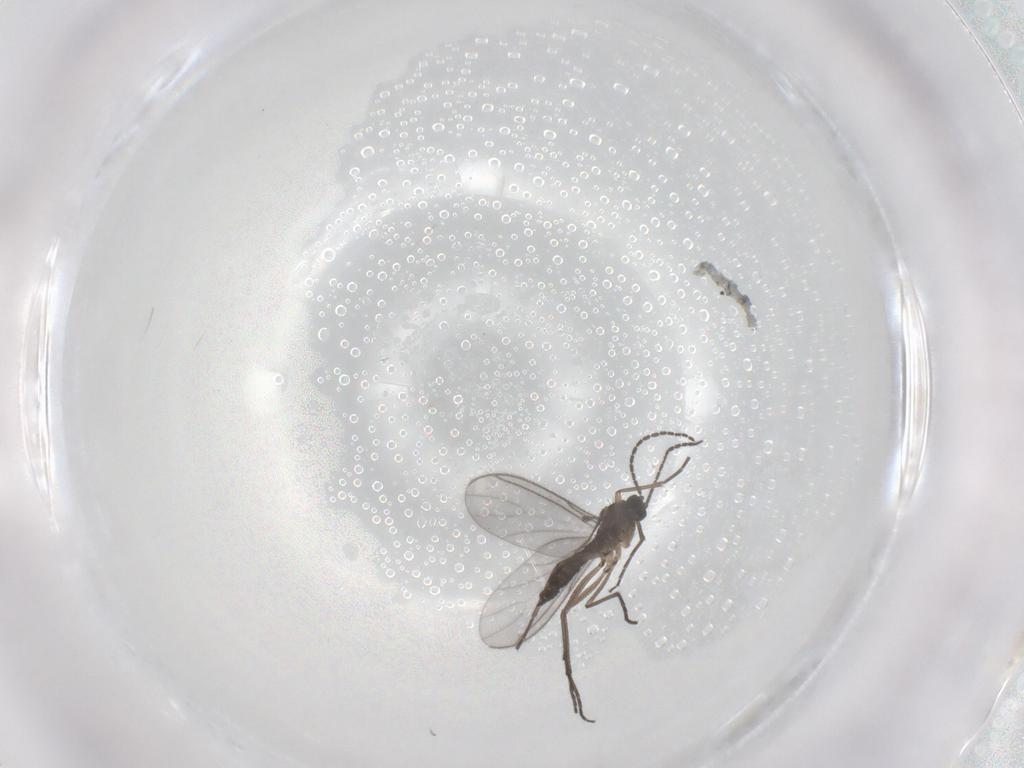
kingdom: Animalia
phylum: Arthropoda
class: Insecta
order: Diptera
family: Sciaridae
